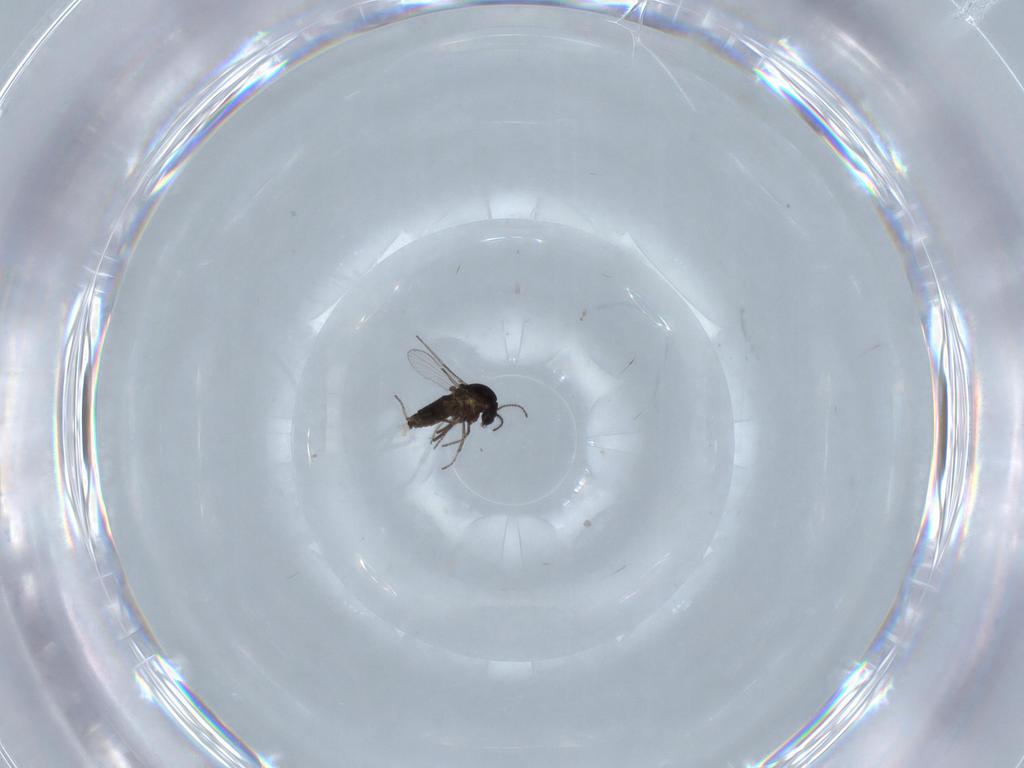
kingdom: Animalia
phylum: Arthropoda
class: Insecta
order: Diptera
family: Ceratopogonidae
